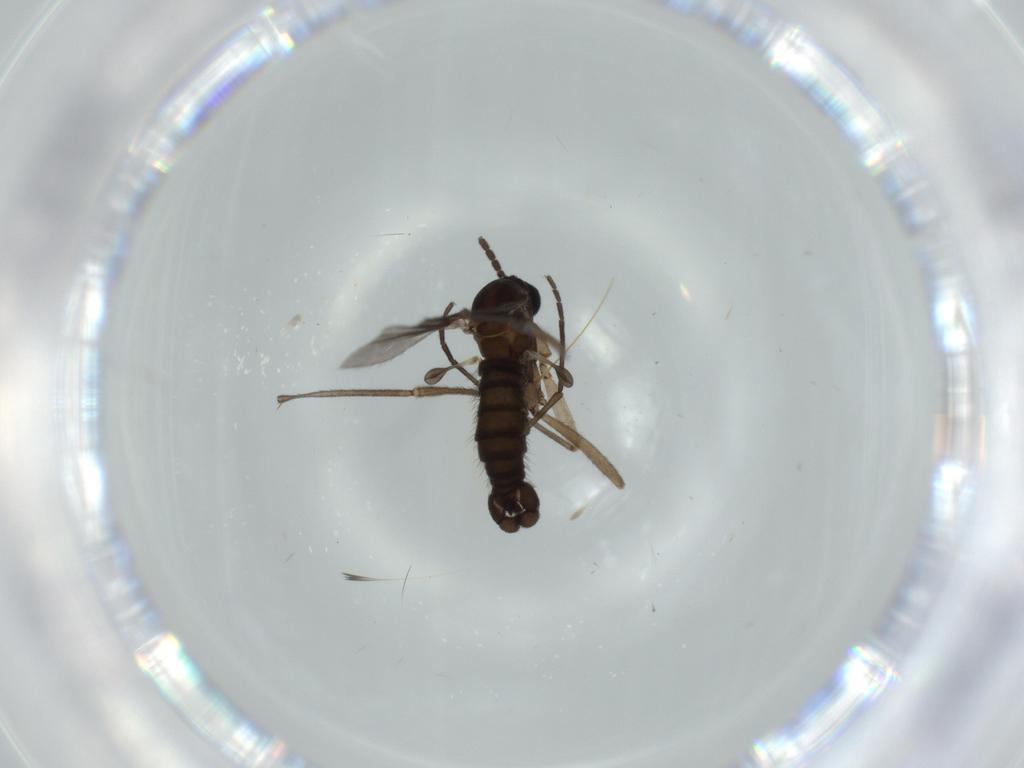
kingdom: Animalia
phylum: Arthropoda
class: Insecta
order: Diptera
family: Sciaridae
